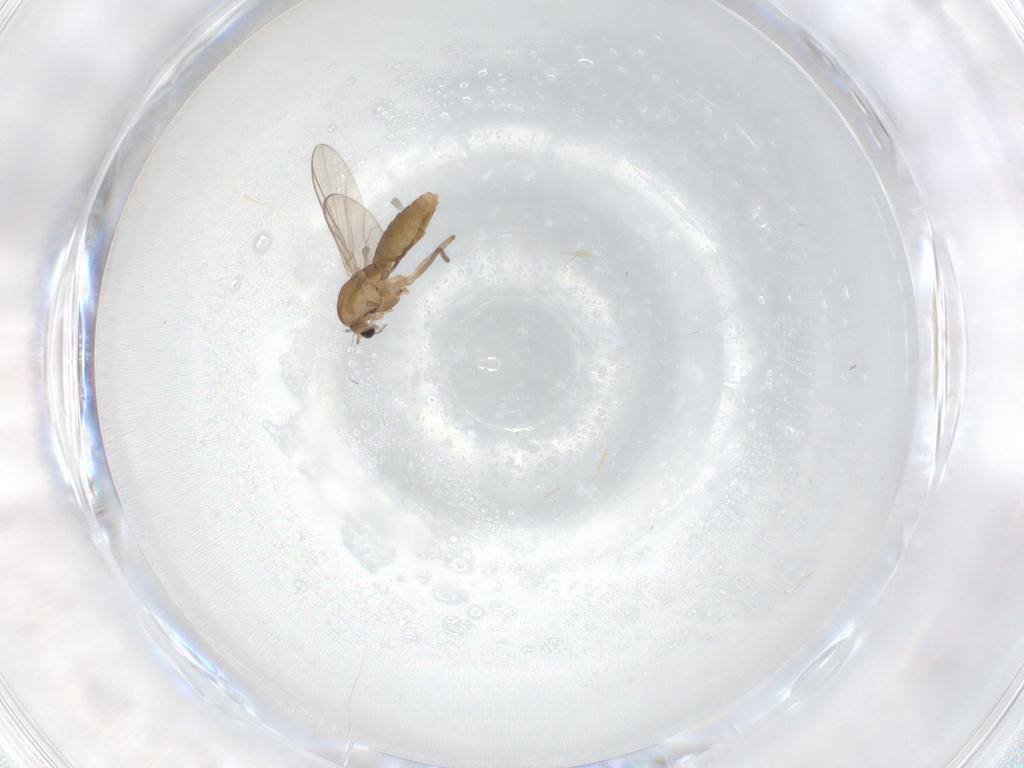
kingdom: Animalia
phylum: Arthropoda
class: Insecta
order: Diptera
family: Chironomidae
